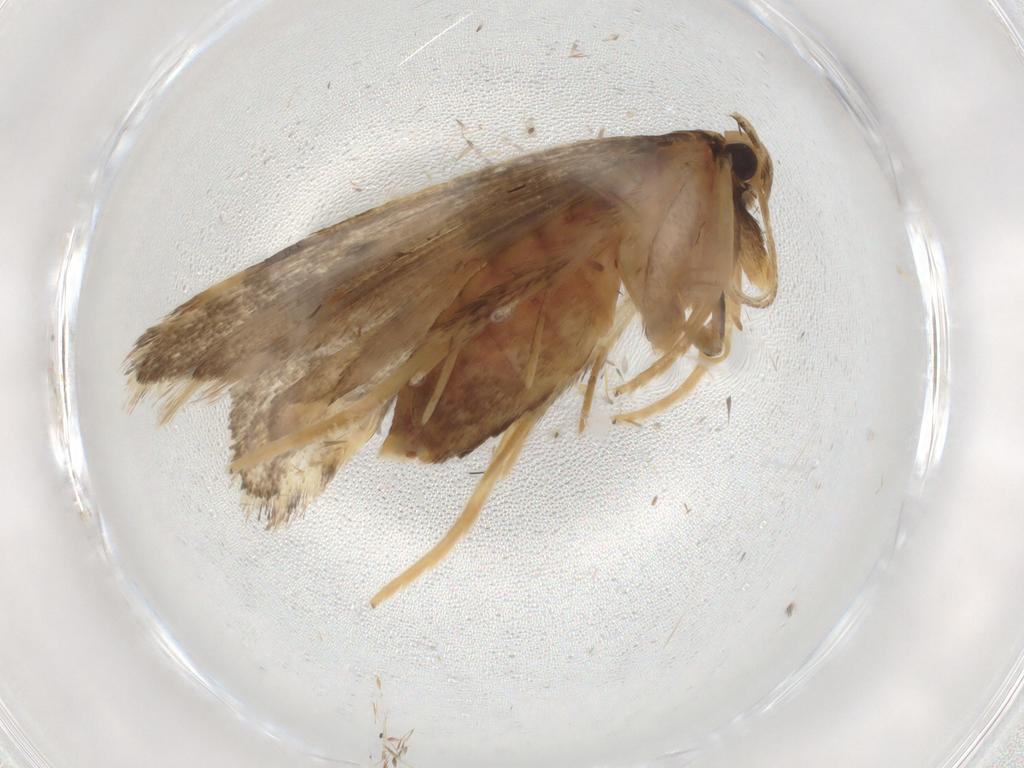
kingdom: Animalia
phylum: Arthropoda
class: Insecta
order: Lepidoptera
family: Lecithoceridae
